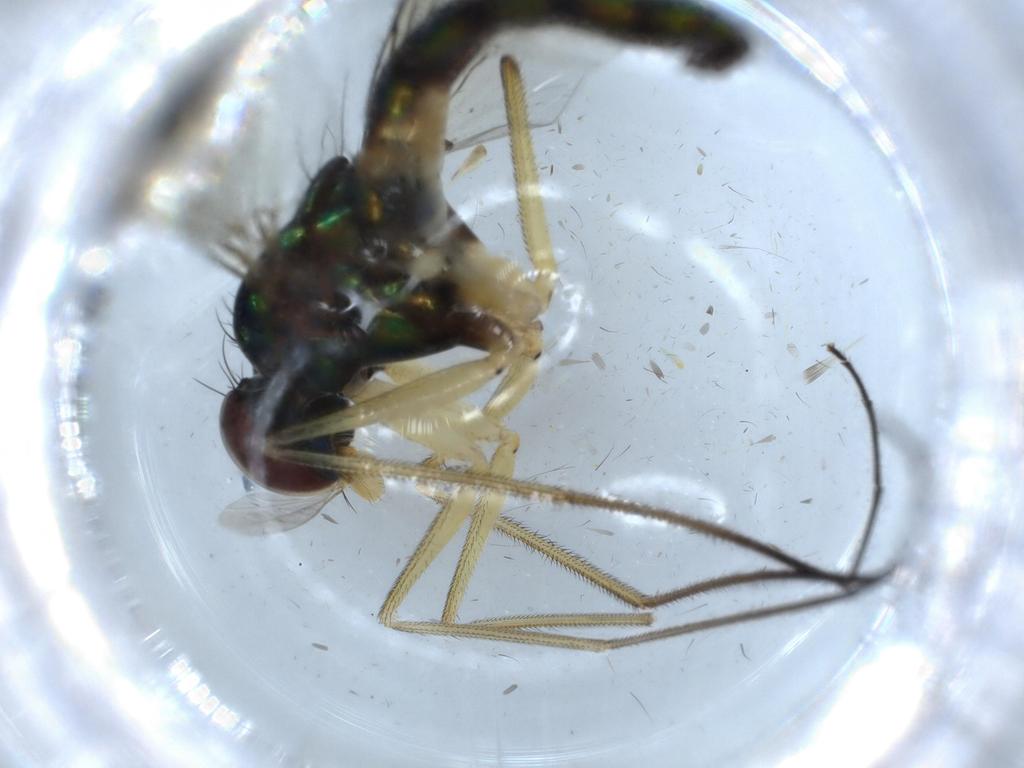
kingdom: Animalia
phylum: Arthropoda
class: Insecta
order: Diptera
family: Dolichopodidae
